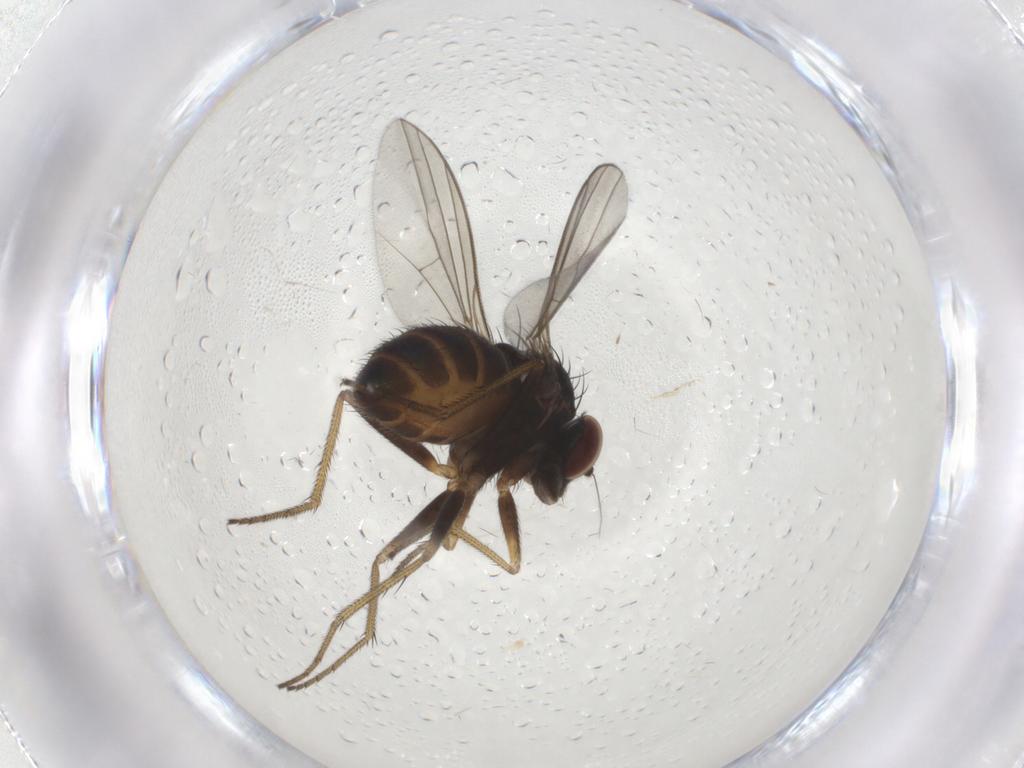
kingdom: Animalia
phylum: Arthropoda
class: Insecta
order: Diptera
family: Dolichopodidae
